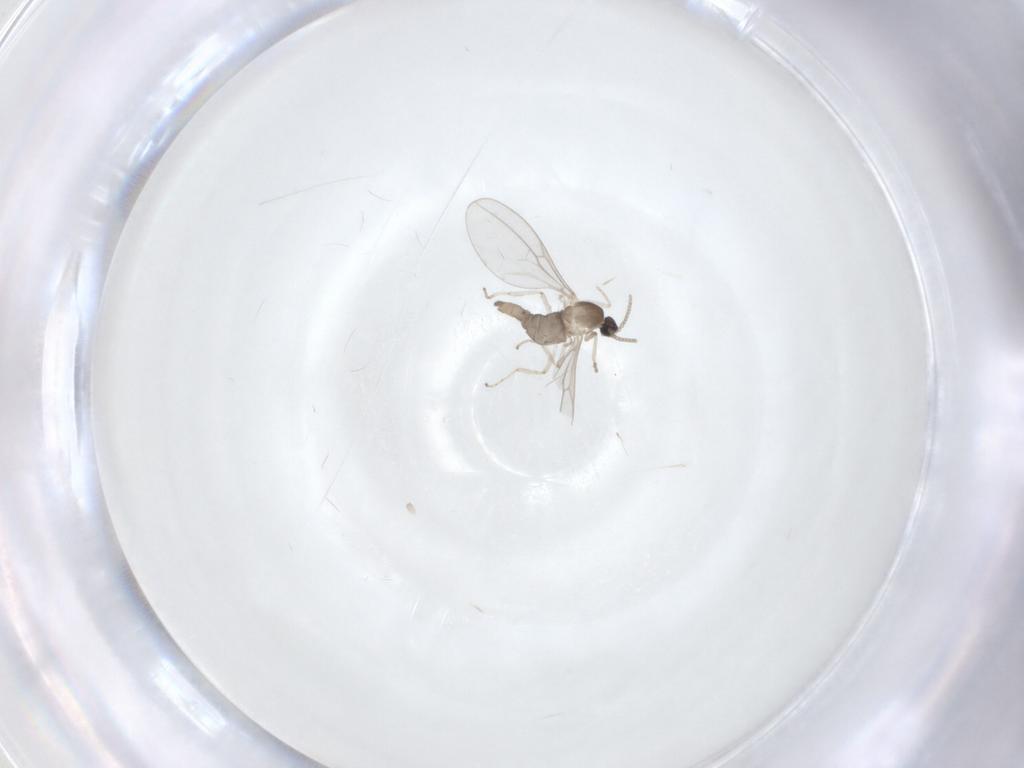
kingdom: Animalia
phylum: Arthropoda
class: Insecta
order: Diptera
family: Cecidomyiidae
